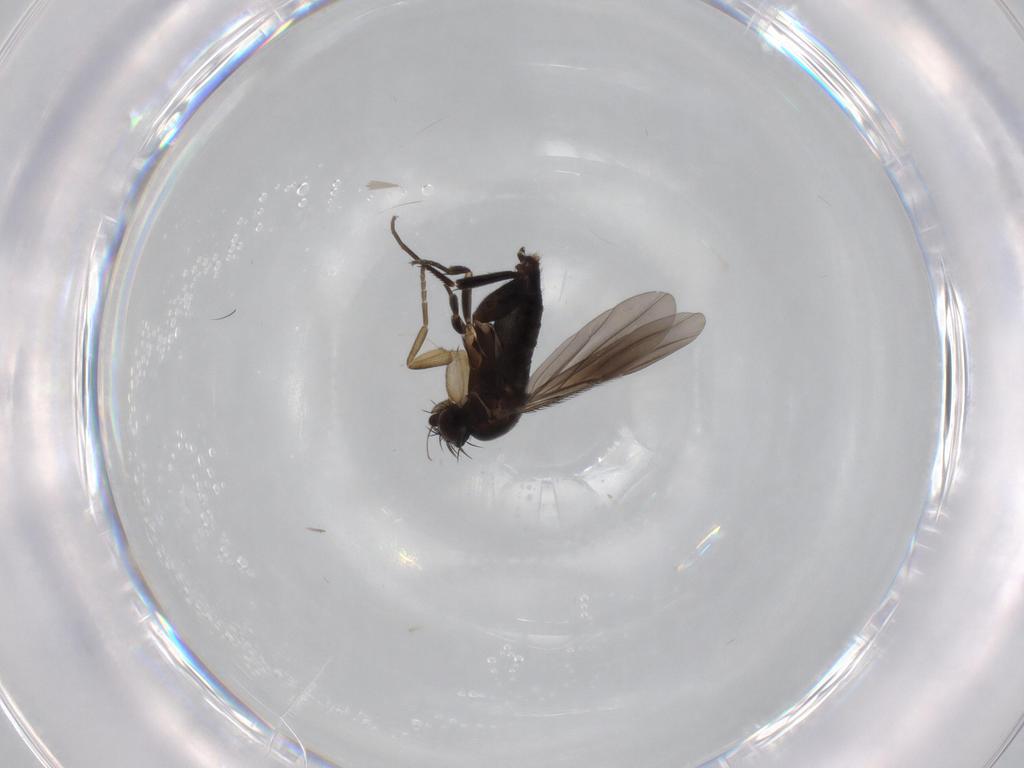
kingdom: Animalia
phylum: Arthropoda
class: Insecta
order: Diptera
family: Phoridae
